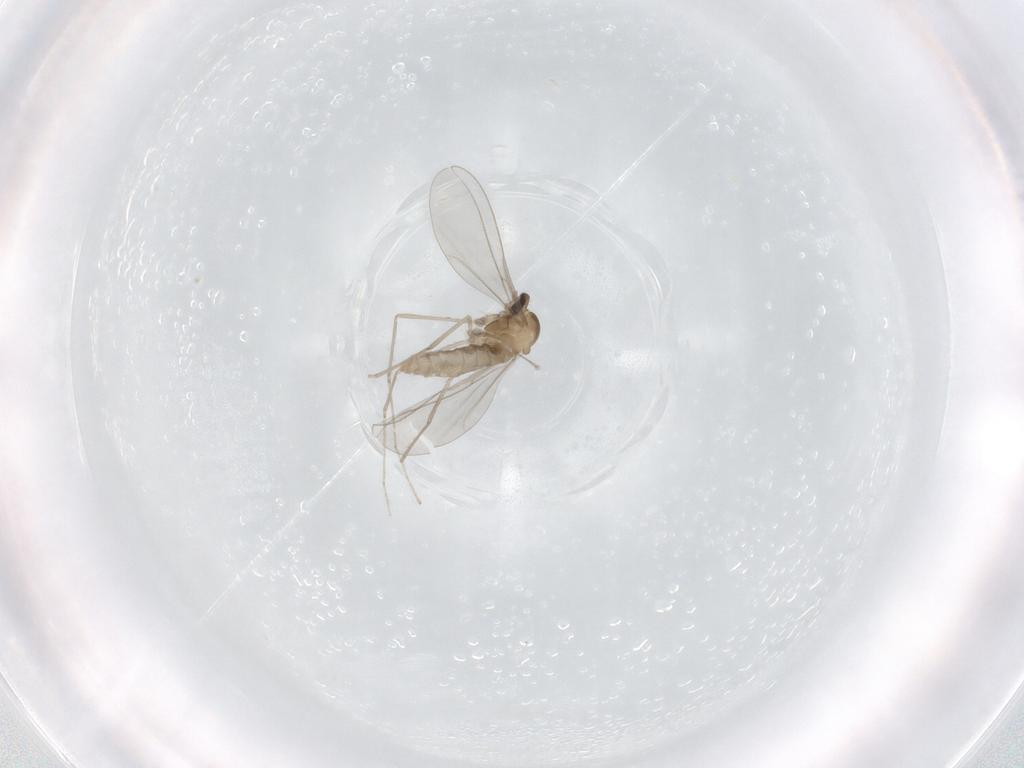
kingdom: Animalia
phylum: Arthropoda
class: Insecta
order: Diptera
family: Cecidomyiidae
